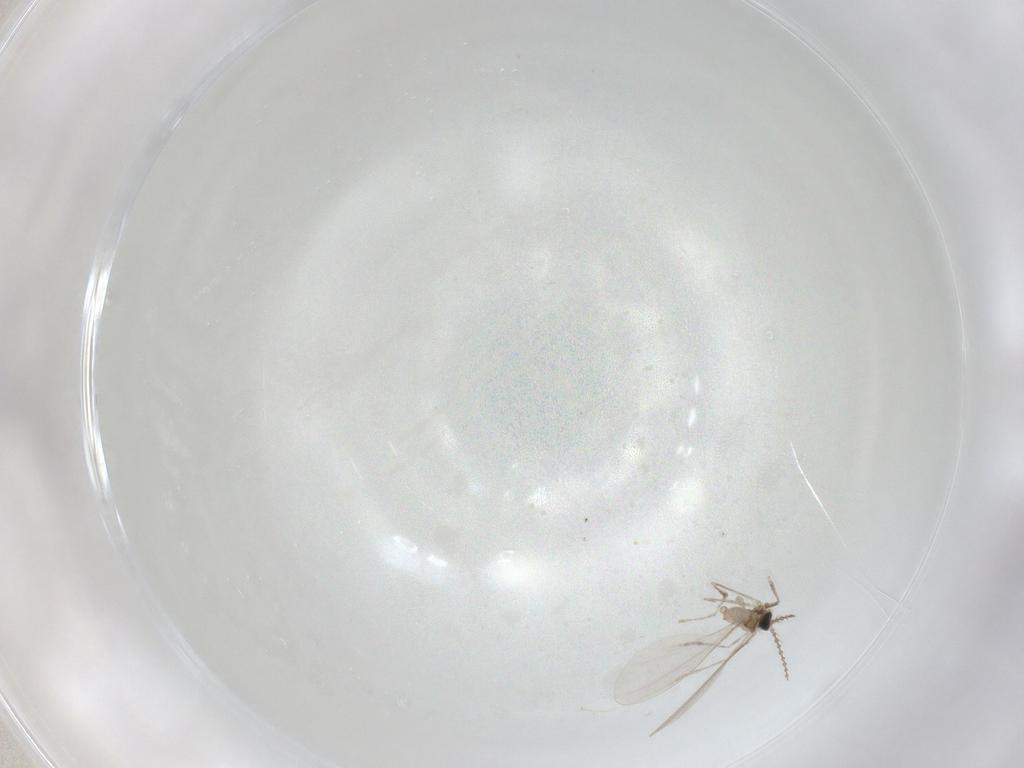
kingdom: Animalia
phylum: Arthropoda
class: Insecta
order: Diptera
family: Cecidomyiidae
